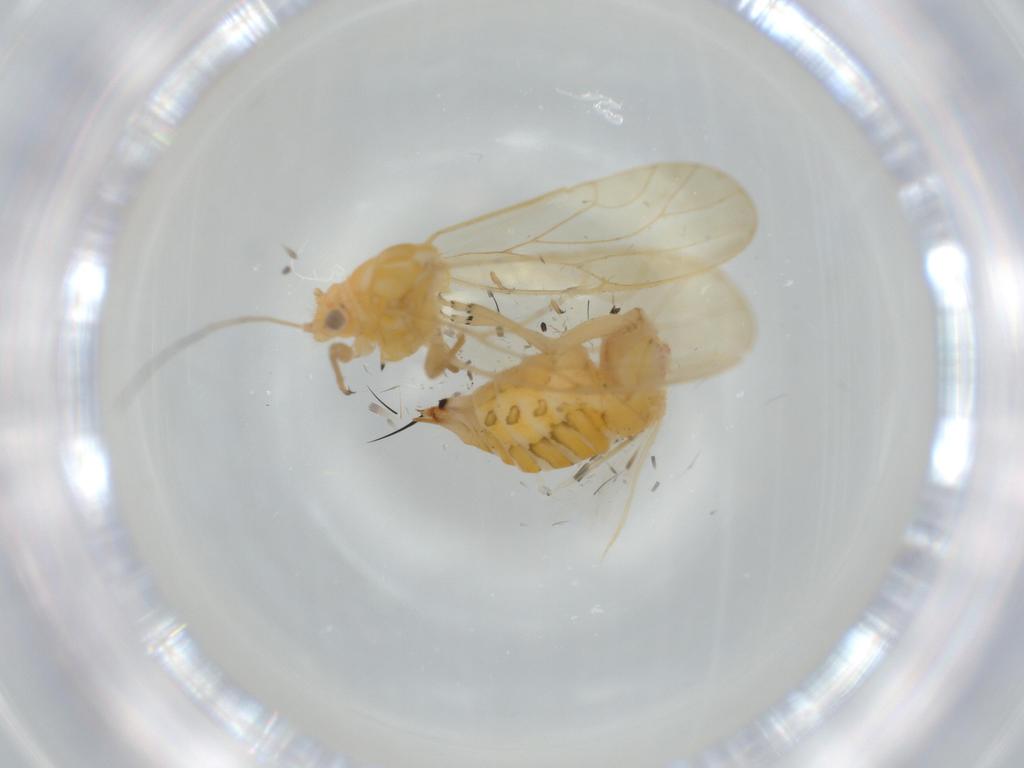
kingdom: Animalia
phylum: Arthropoda
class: Insecta
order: Hemiptera
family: Psyllidae
